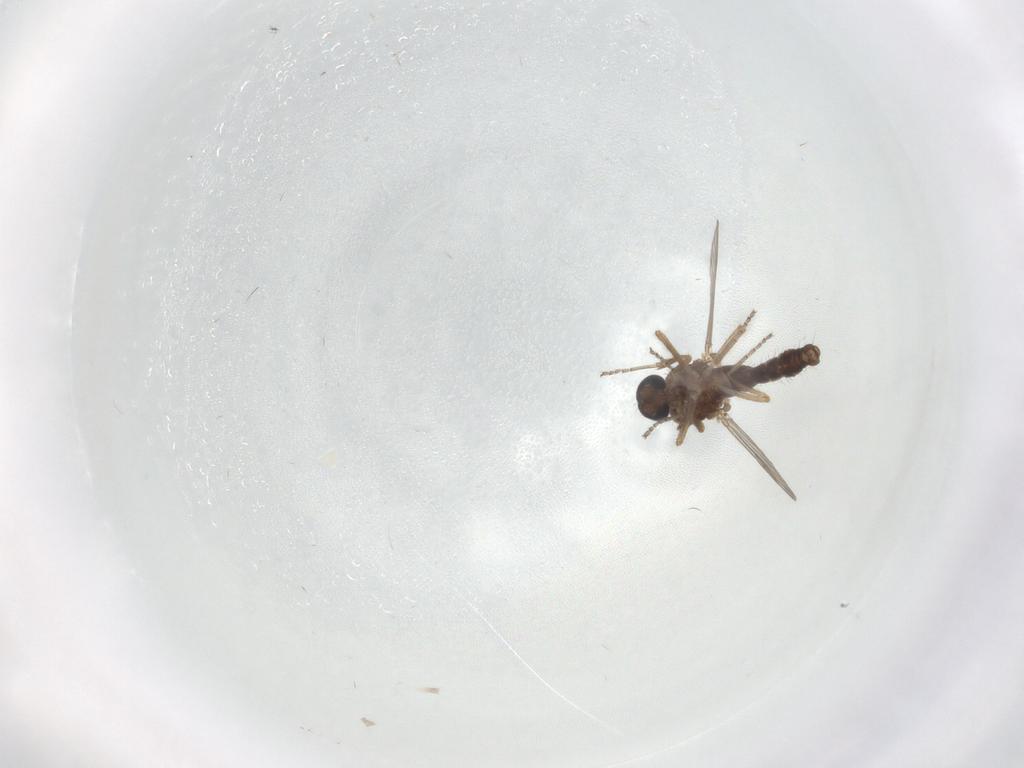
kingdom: Animalia
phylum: Arthropoda
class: Insecta
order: Diptera
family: Ceratopogonidae
